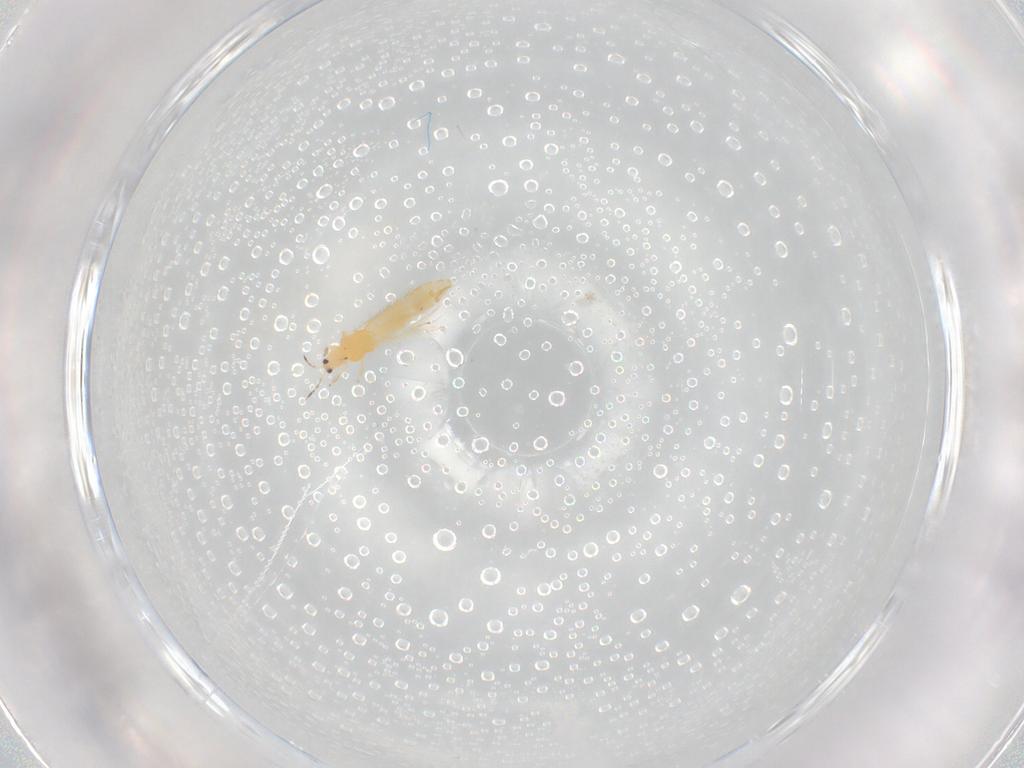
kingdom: Animalia
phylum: Arthropoda
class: Insecta
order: Thysanoptera
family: Thripidae
